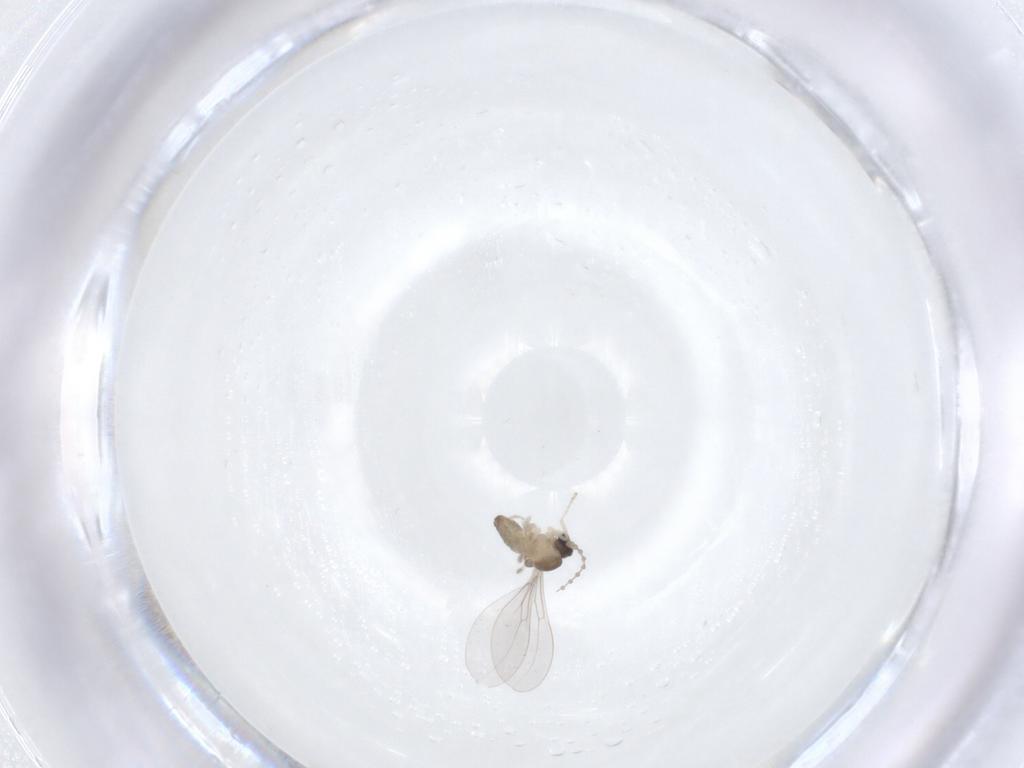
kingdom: Animalia
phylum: Arthropoda
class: Insecta
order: Diptera
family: Cecidomyiidae
